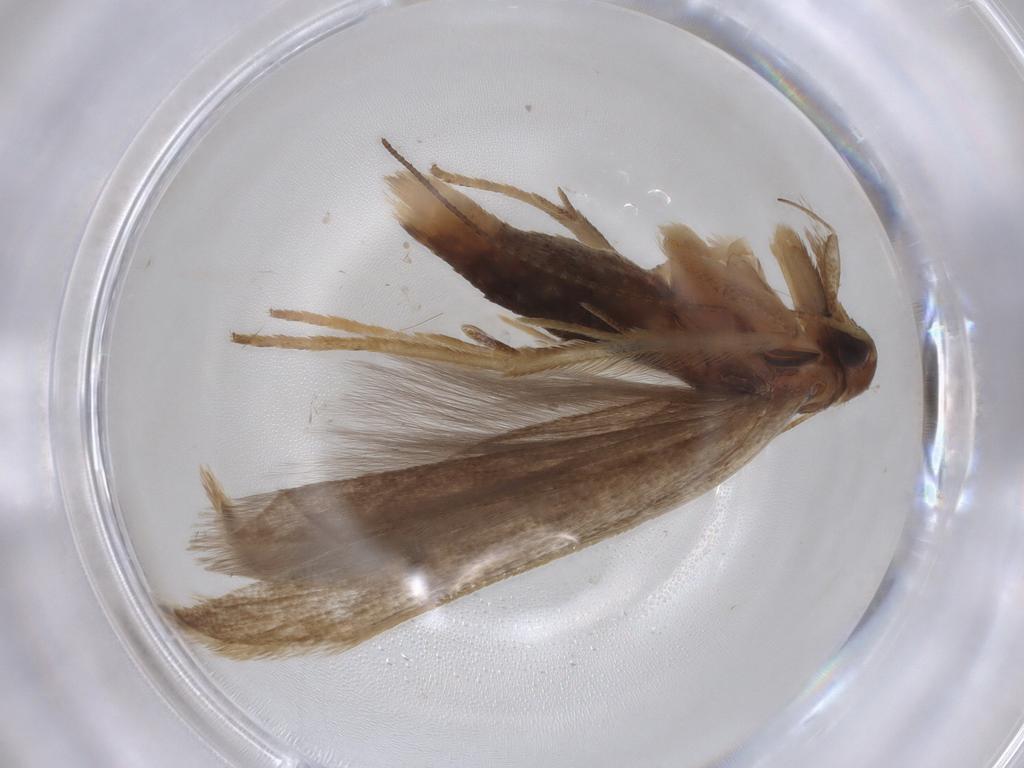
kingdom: Animalia
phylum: Arthropoda
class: Insecta
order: Lepidoptera
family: Gelechiidae
